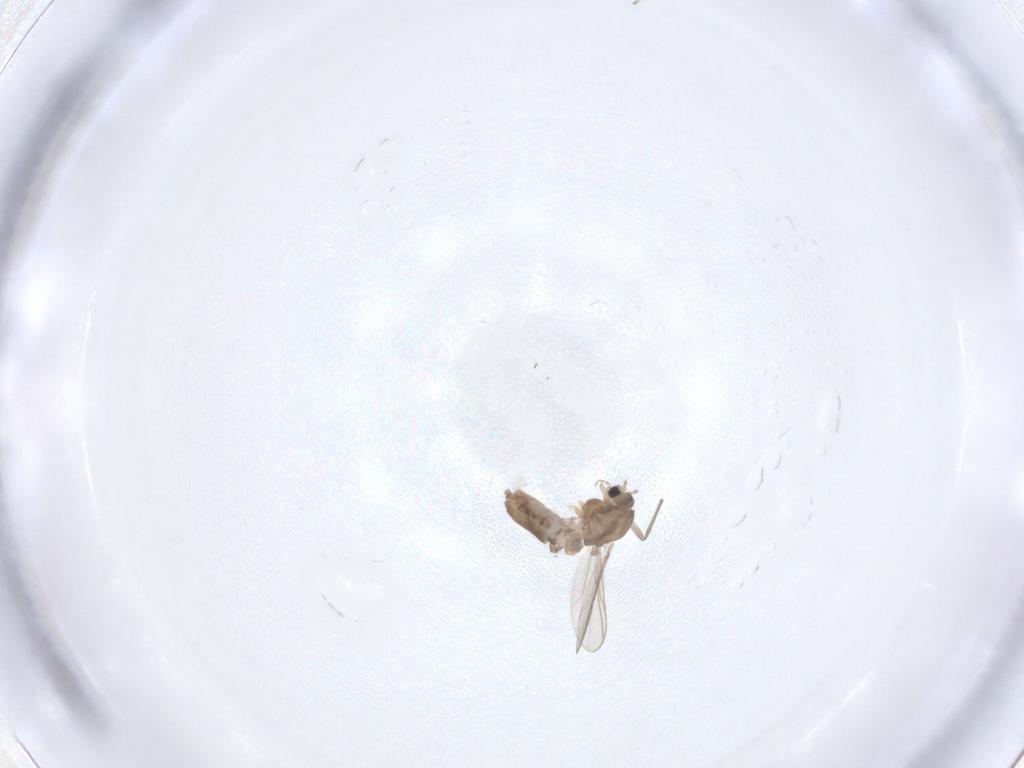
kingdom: Animalia
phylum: Arthropoda
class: Insecta
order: Diptera
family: Chironomidae
